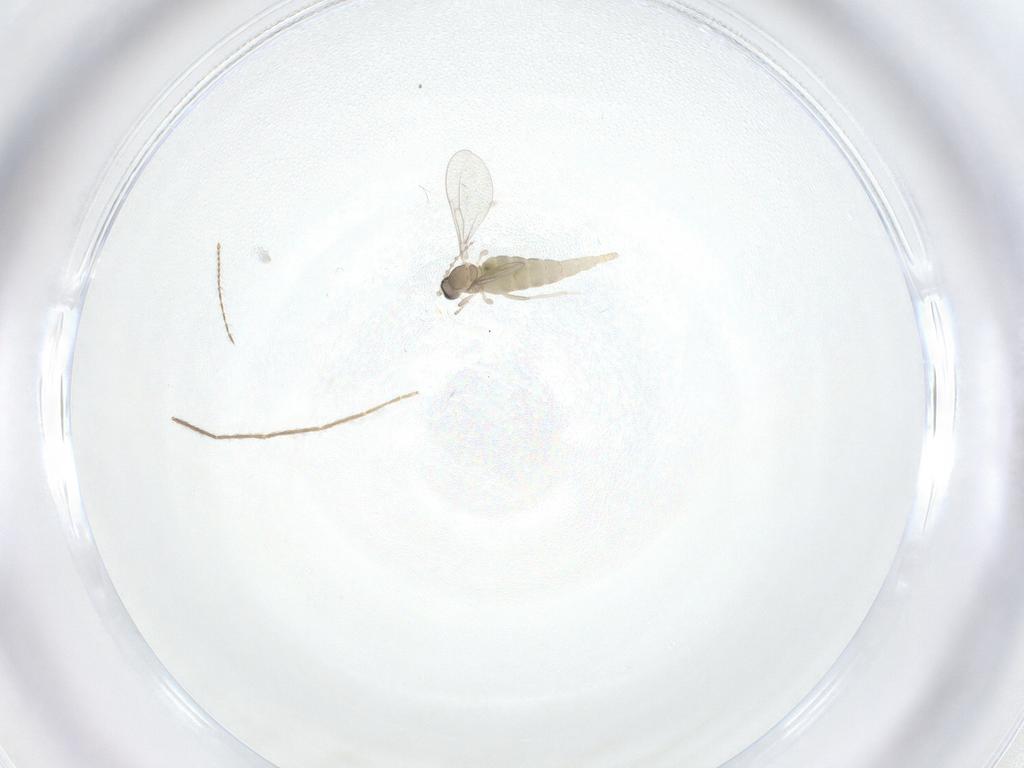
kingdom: Animalia
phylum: Arthropoda
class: Insecta
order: Diptera
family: Cecidomyiidae
